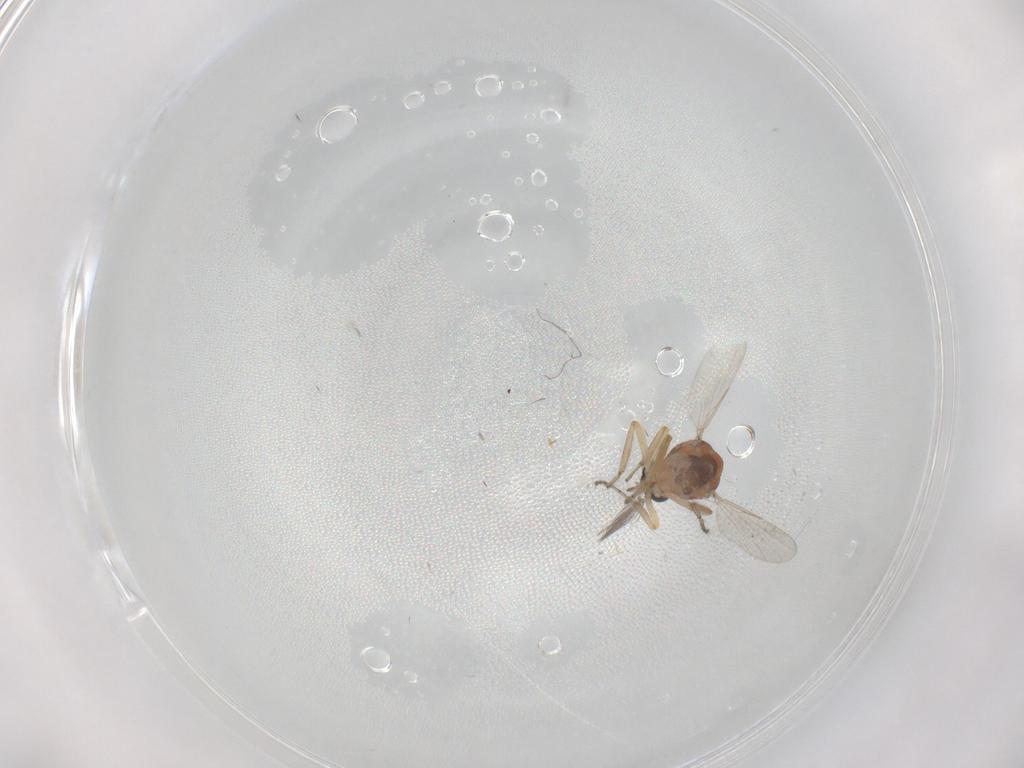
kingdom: Animalia
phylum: Arthropoda
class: Insecta
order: Diptera
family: Ceratopogonidae
